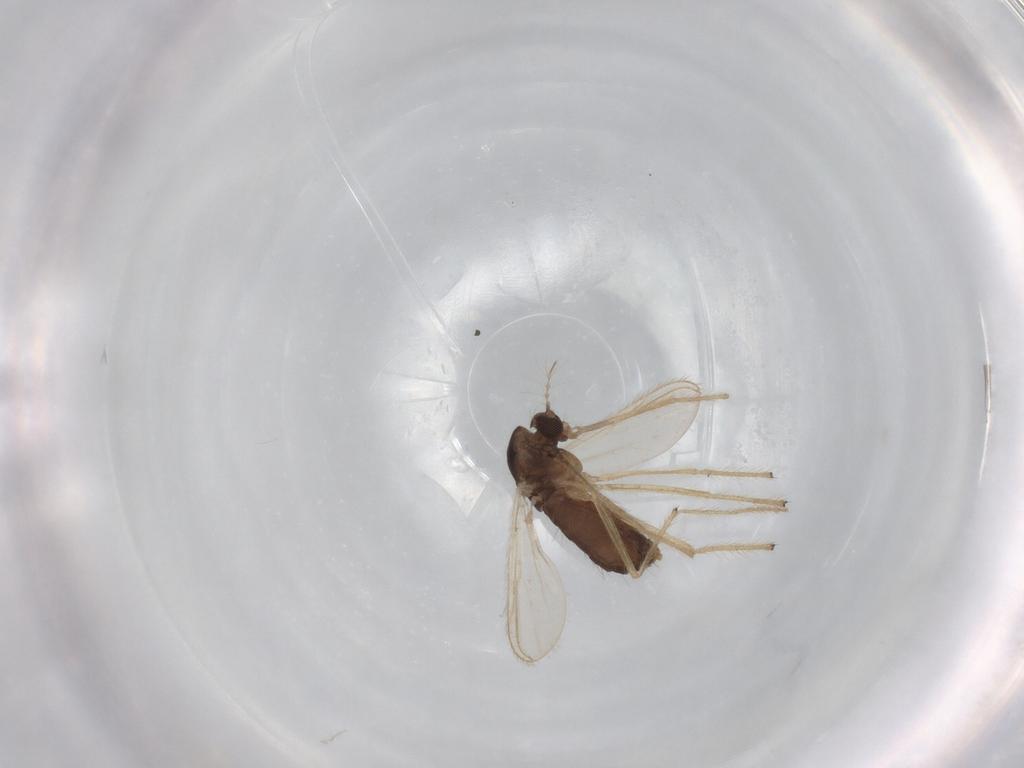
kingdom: Animalia
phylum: Arthropoda
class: Insecta
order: Diptera
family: Chironomidae
